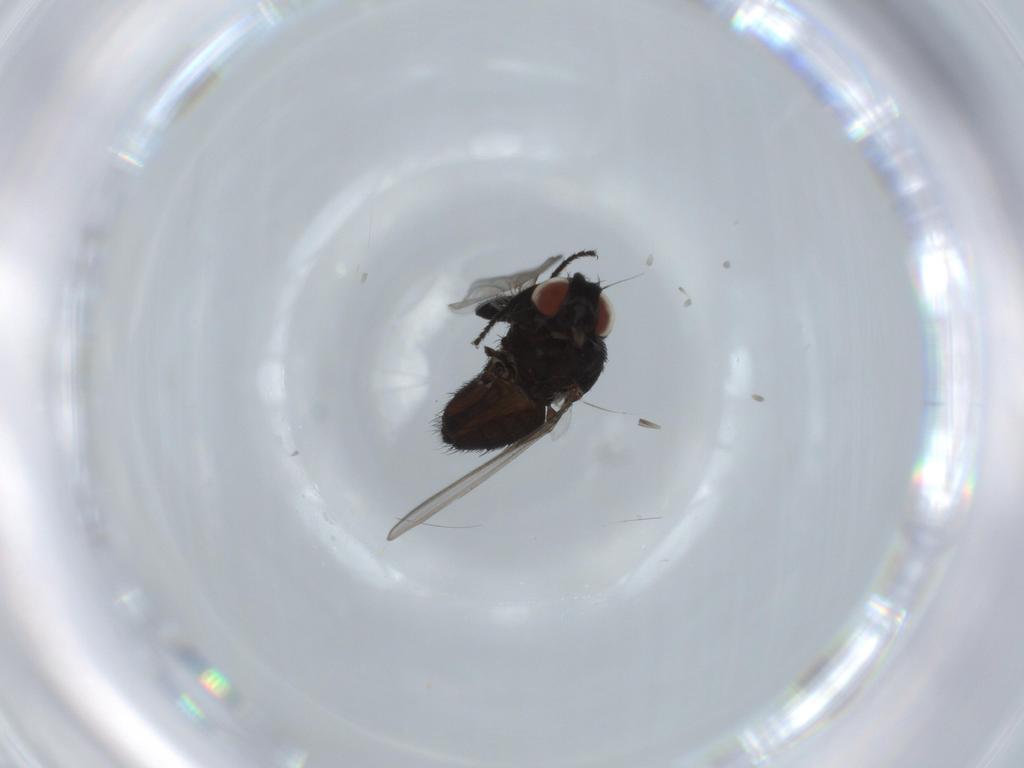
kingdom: Animalia
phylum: Arthropoda
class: Insecta
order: Diptera
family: Milichiidae
